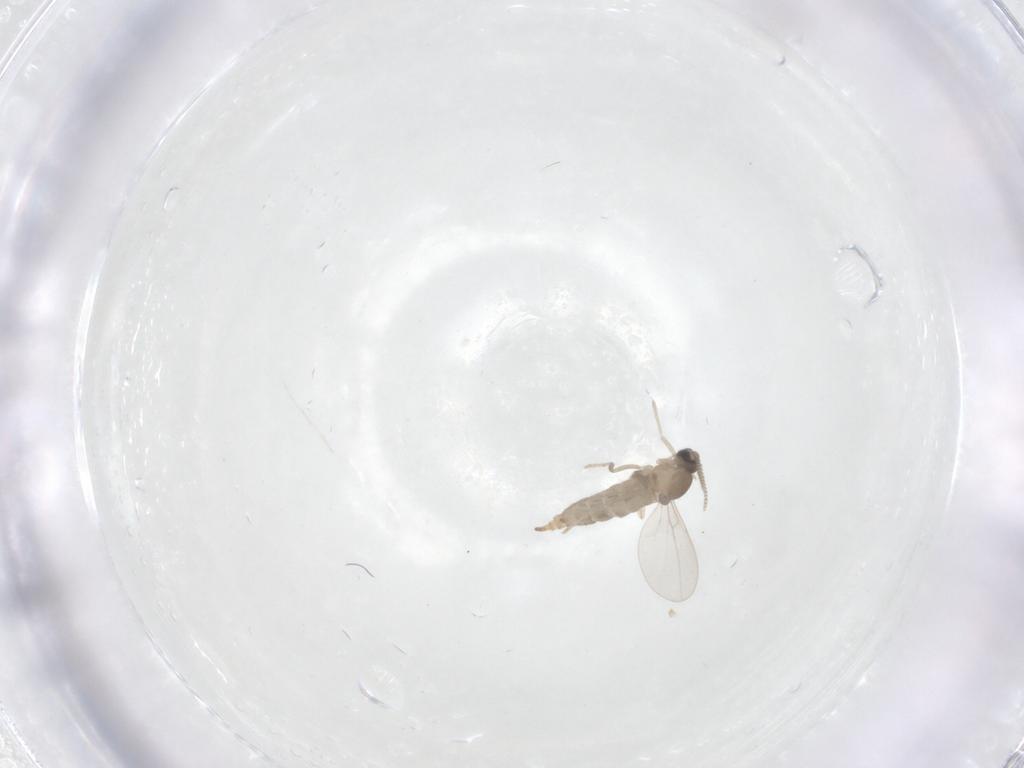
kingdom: Animalia
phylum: Arthropoda
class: Insecta
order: Diptera
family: Cecidomyiidae
